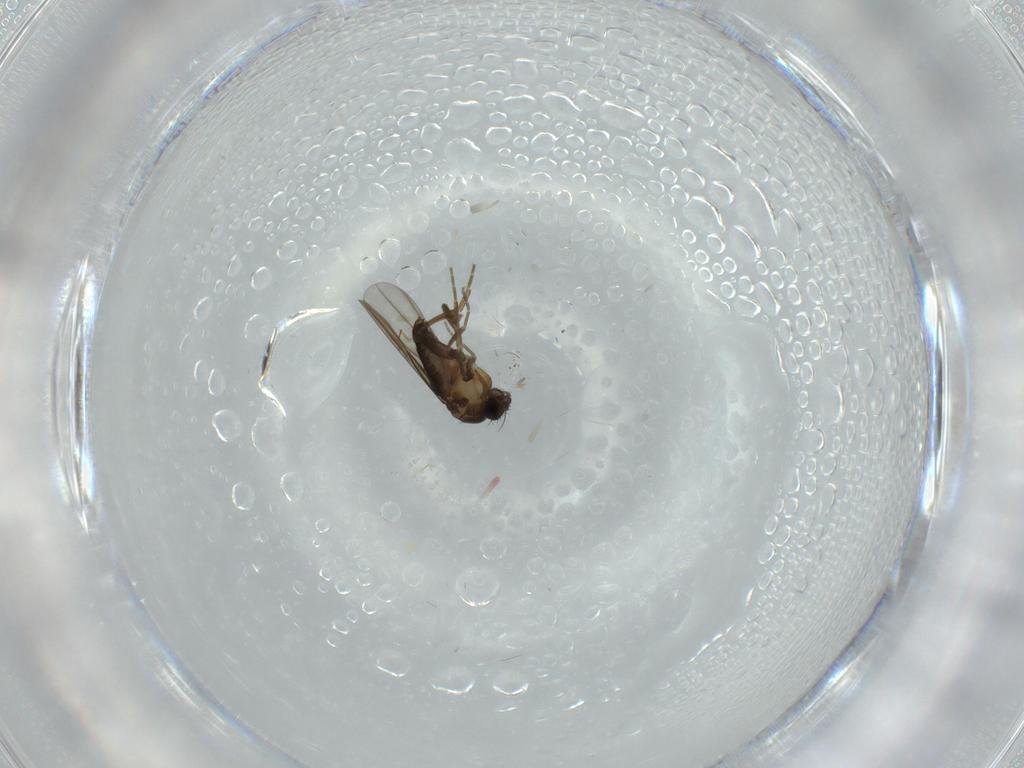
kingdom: Animalia
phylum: Arthropoda
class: Insecta
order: Diptera
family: Phoridae
